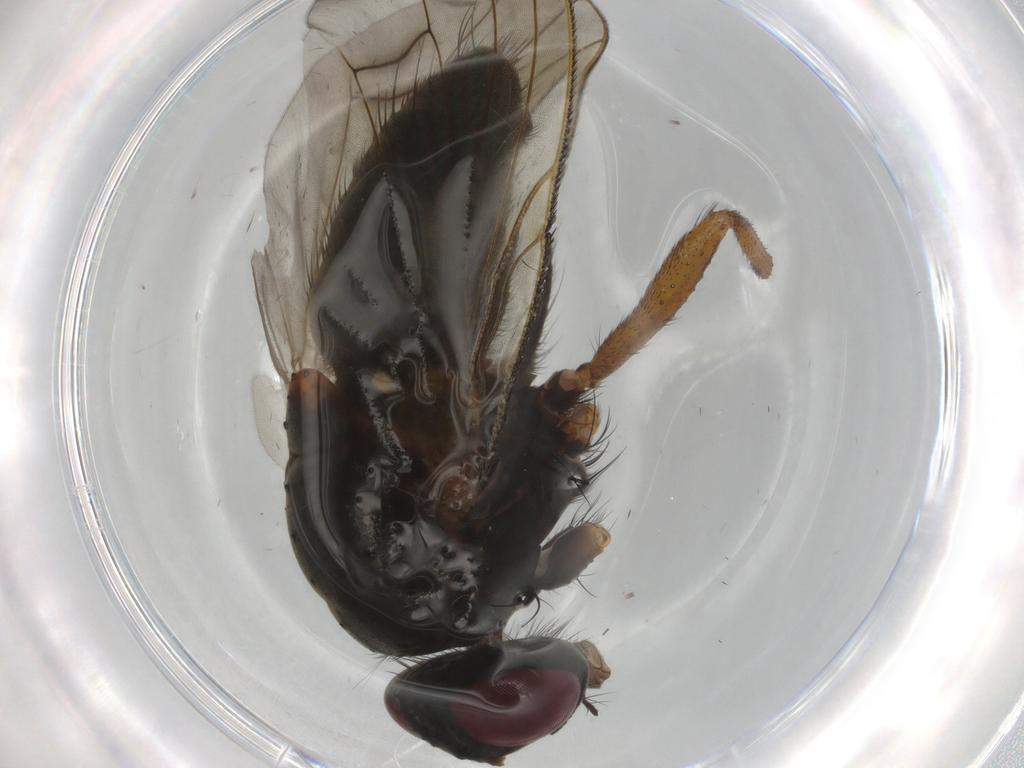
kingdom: Animalia
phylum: Arthropoda
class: Insecta
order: Diptera
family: Muscidae
